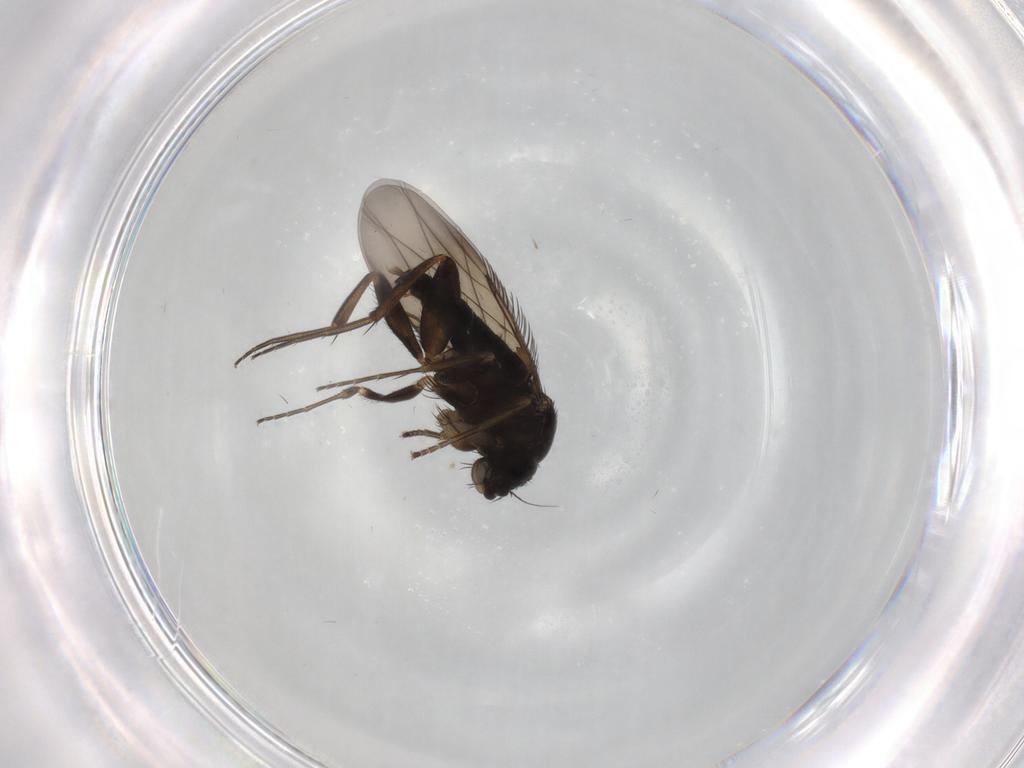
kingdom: Animalia
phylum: Arthropoda
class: Insecta
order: Diptera
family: Phoridae
